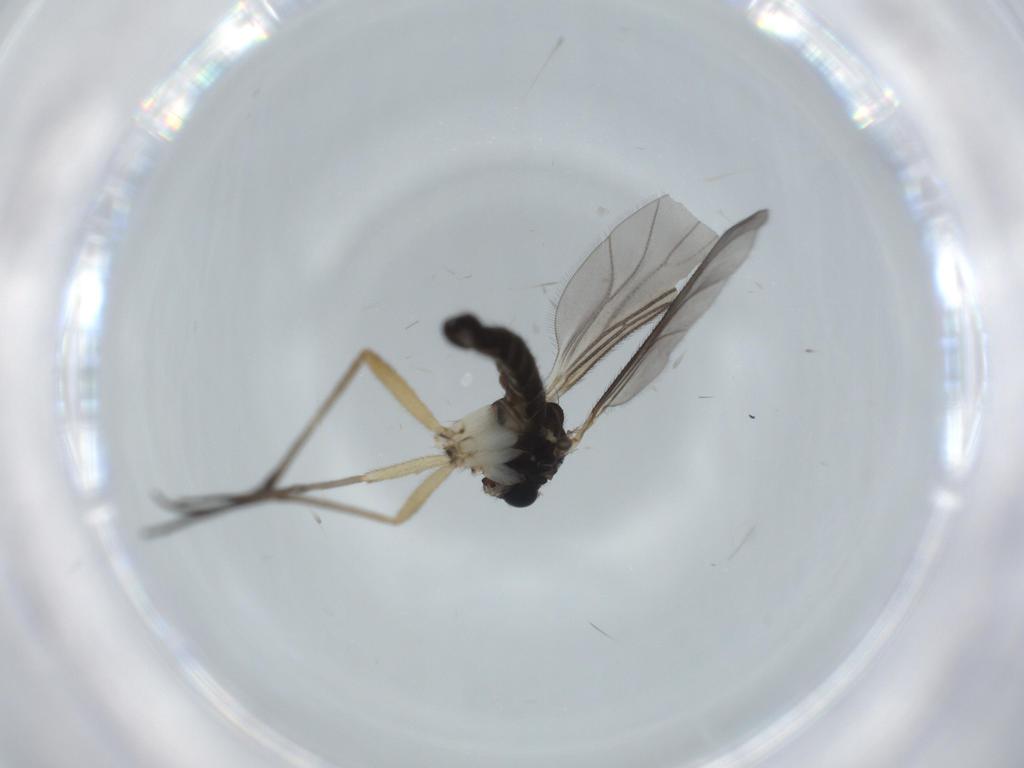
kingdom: Animalia
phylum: Arthropoda
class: Insecta
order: Diptera
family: Sciaridae
